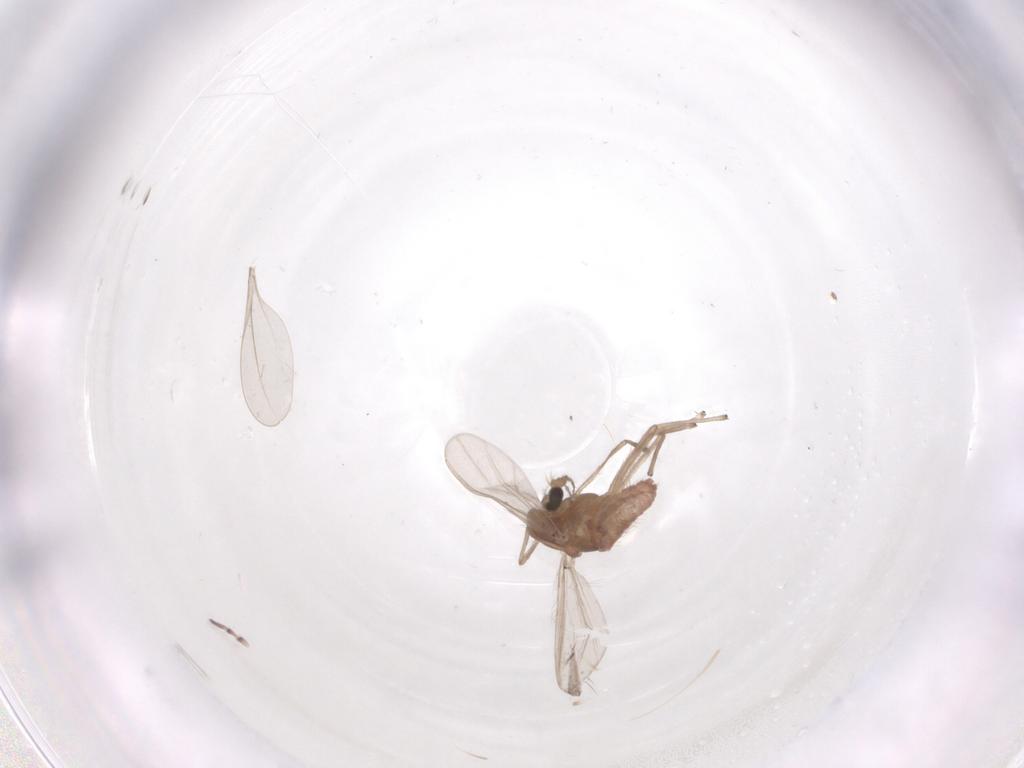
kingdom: Animalia
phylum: Arthropoda
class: Insecta
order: Diptera
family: Chironomidae
